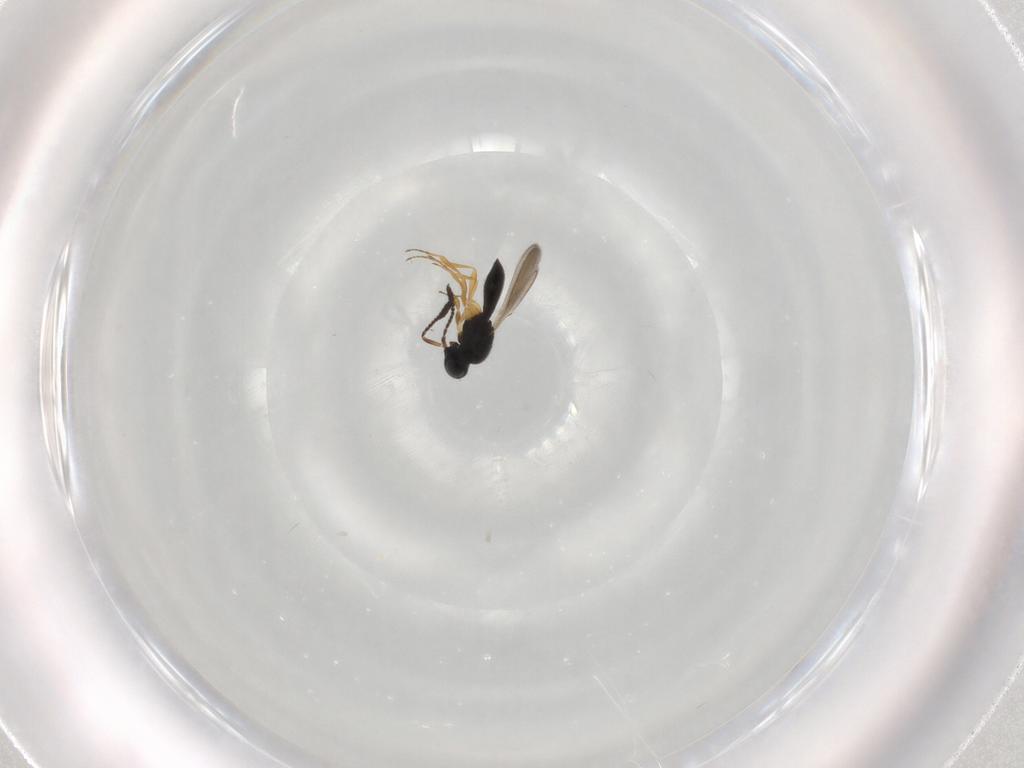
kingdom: Animalia
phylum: Arthropoda
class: Insecta
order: Hymenoptera
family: Scelionidae
